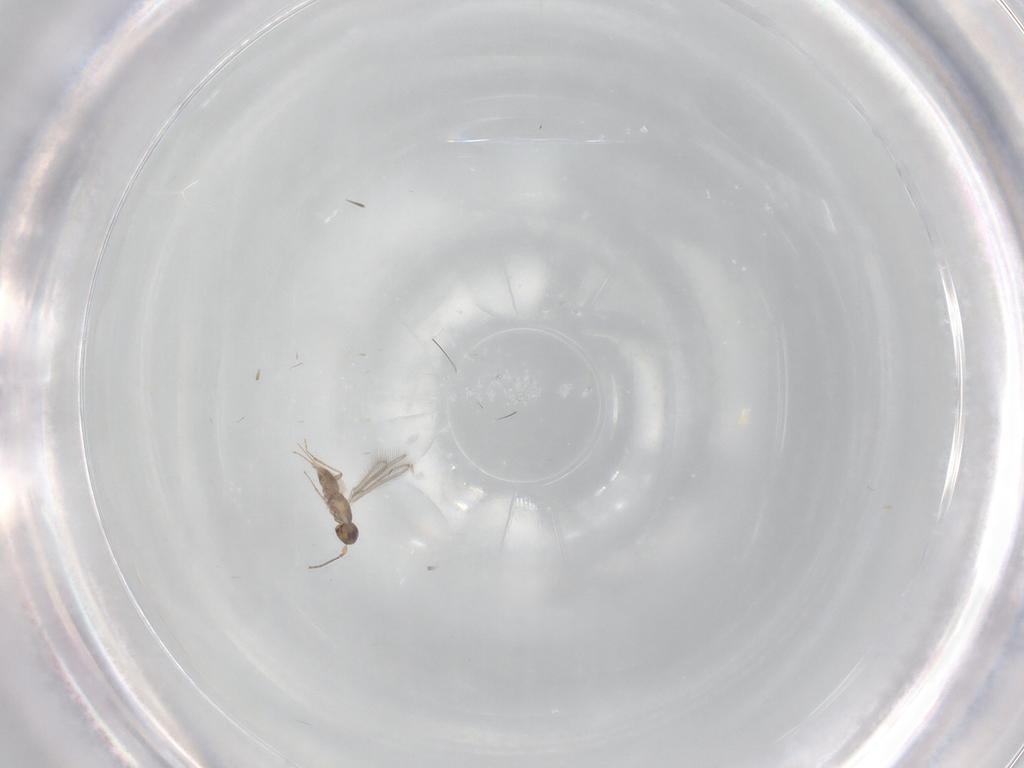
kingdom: Animalia
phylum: Arthropoda
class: Insecta
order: Hymenoptera
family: Mymaridae
